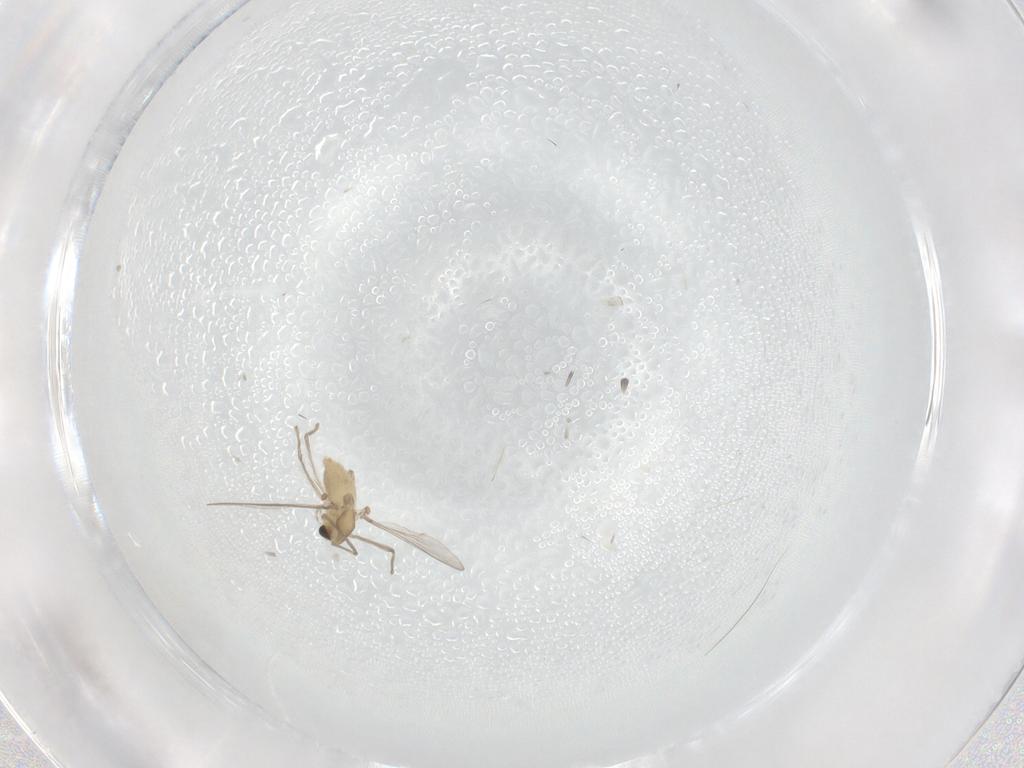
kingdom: Animalia
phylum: Arthropoda
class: Insecta
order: Diptera
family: Chironomidae
